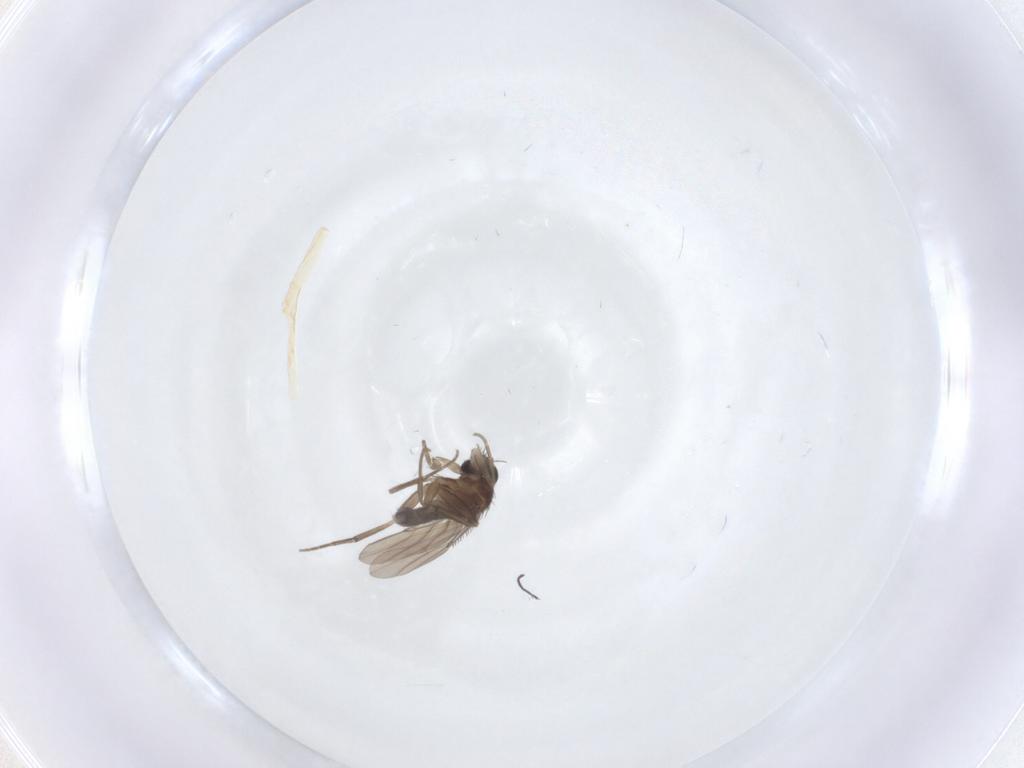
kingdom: Animalia
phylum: Arthropoda
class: Insecta
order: Diptera
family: Phoridae
